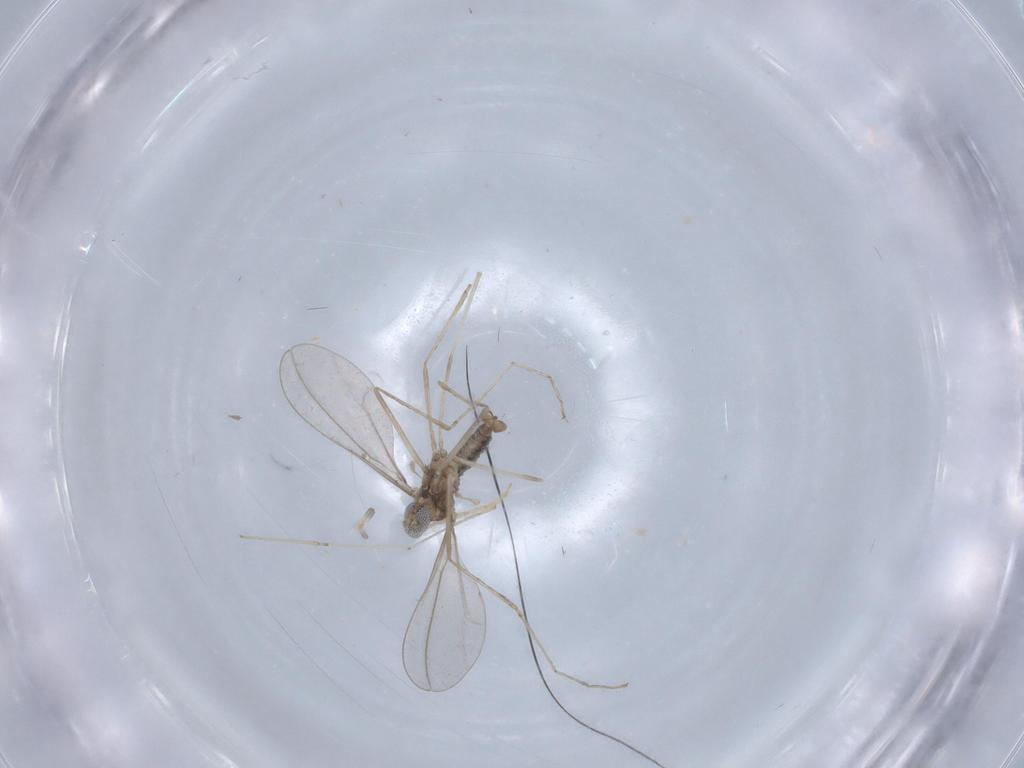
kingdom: Animalia
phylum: Arthropoda
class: Insecta
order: Diptera
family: Chironomidae
